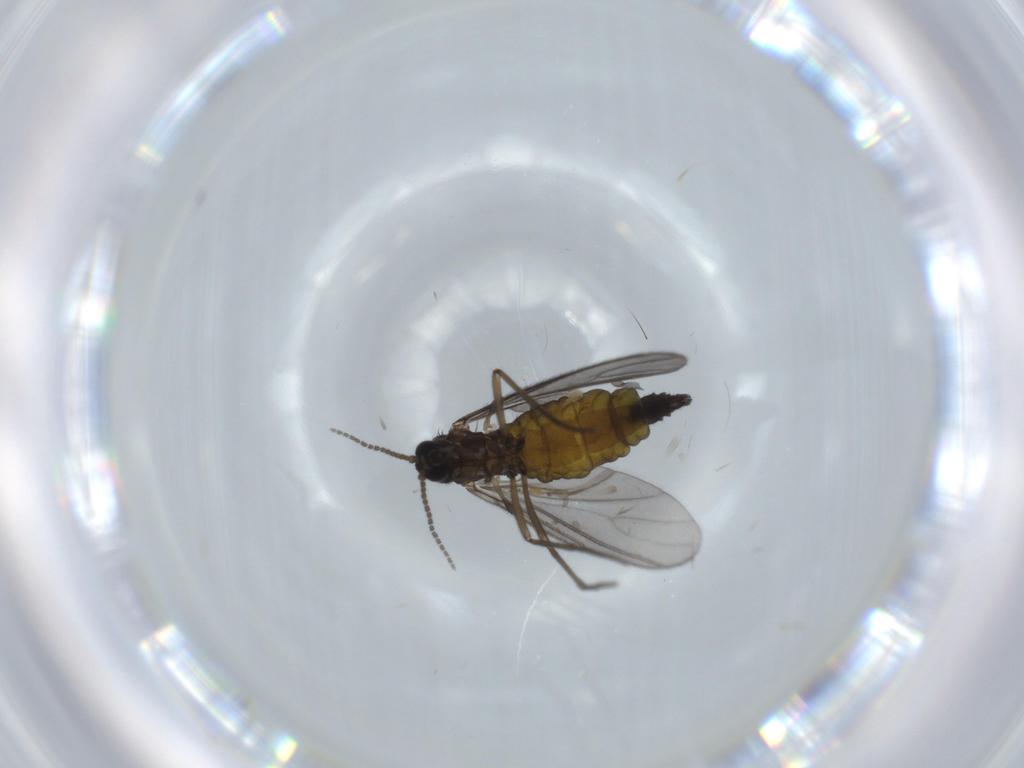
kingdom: Animalia
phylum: Arthropoda
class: Insecta
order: Diptera
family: Sciaridae
